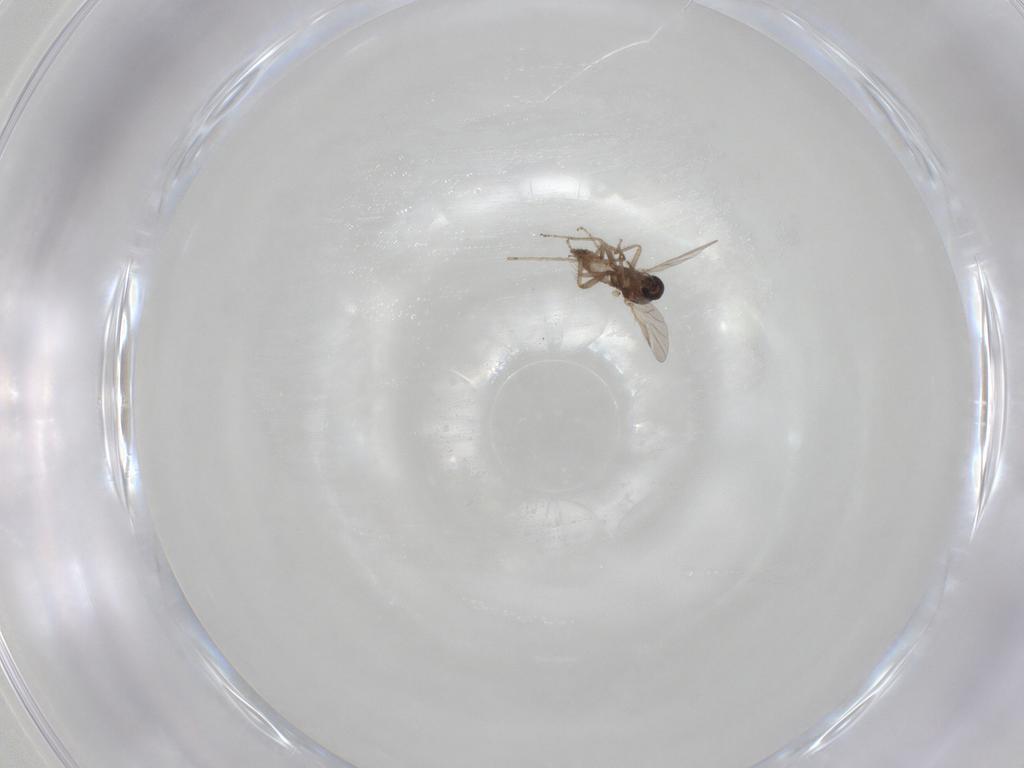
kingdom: Animalia
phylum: Arthropoda
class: Insecta
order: Diptera
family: Cecidomyiidae
